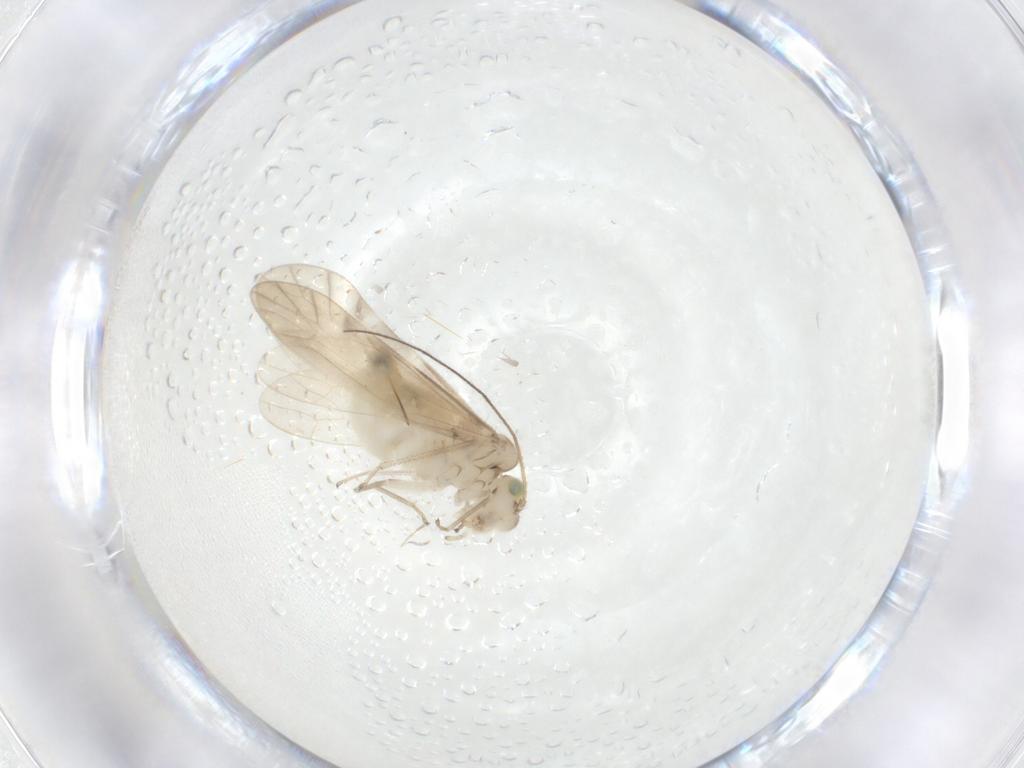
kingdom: Animalia
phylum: Arthropoda
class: Insecta
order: Psocodea
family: Caeciliusidae
